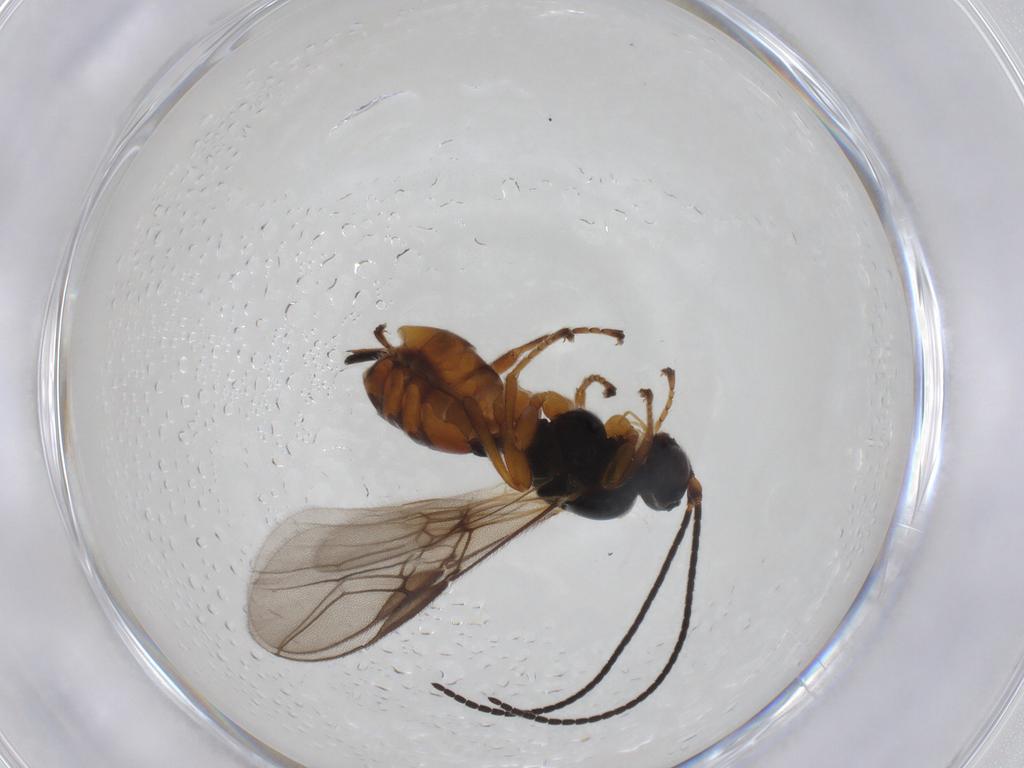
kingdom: Animalia
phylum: Arthropoda
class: Insecta
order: Hymenoptera
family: Braconidae
